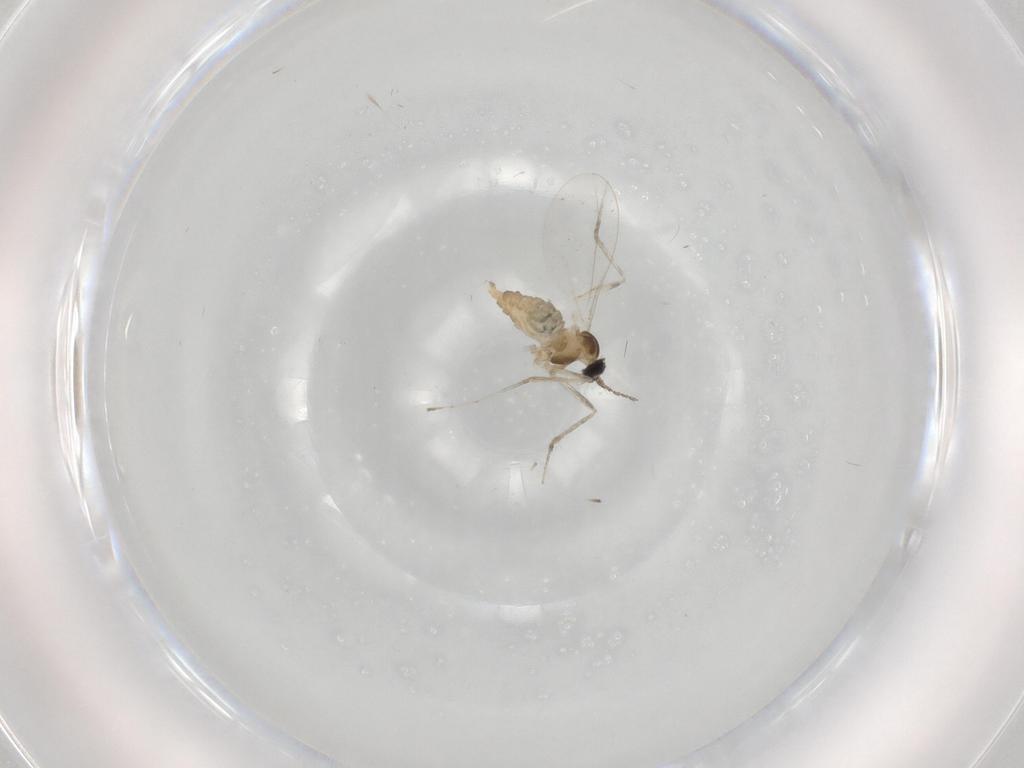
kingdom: Animalia
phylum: Arthropoda
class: Insecta
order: Diptera
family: Cecidomyiidae
